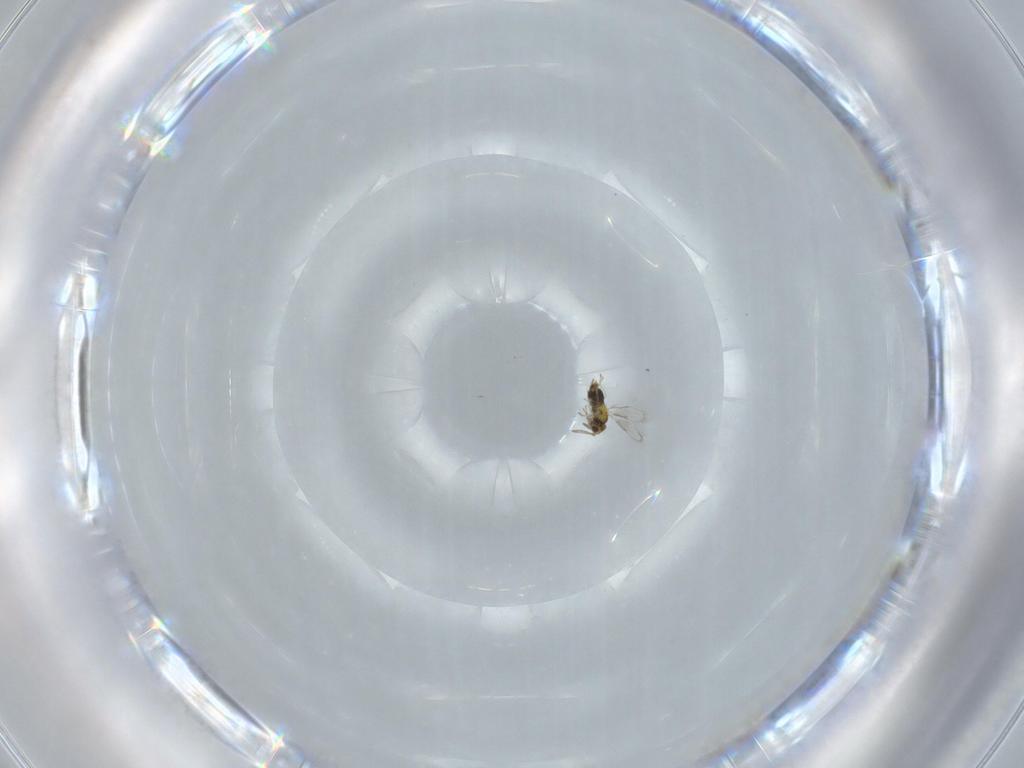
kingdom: Animalia
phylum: Arthropoda
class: Insecta
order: Hymenoptera
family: Aphelinidae
